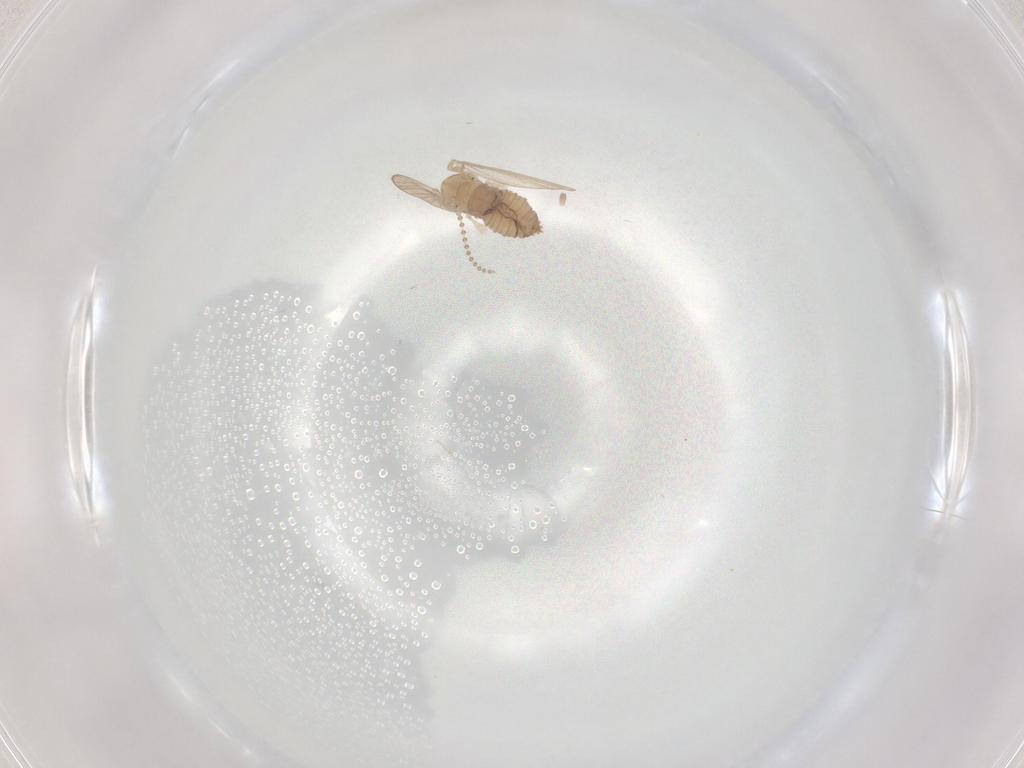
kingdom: Animalia
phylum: Arthropoda
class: Insecta
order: Diptera
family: Psychodidae
